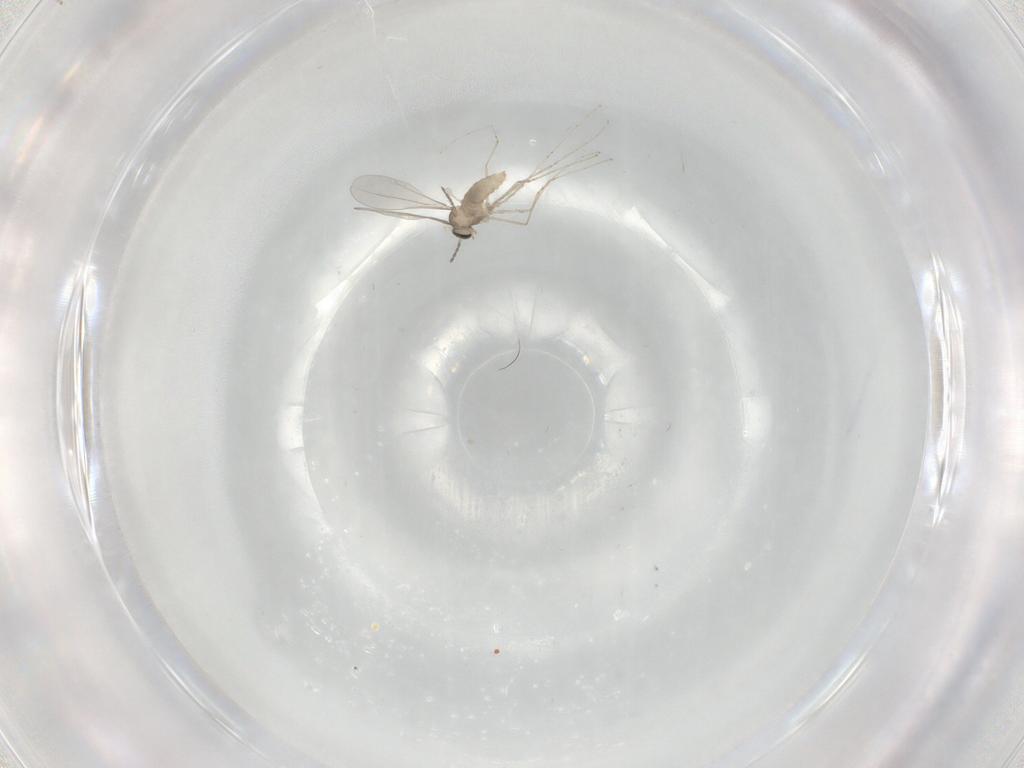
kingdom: Animalia
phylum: Arthropoda
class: Insecta
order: Diptera
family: Cecidomyiidae
